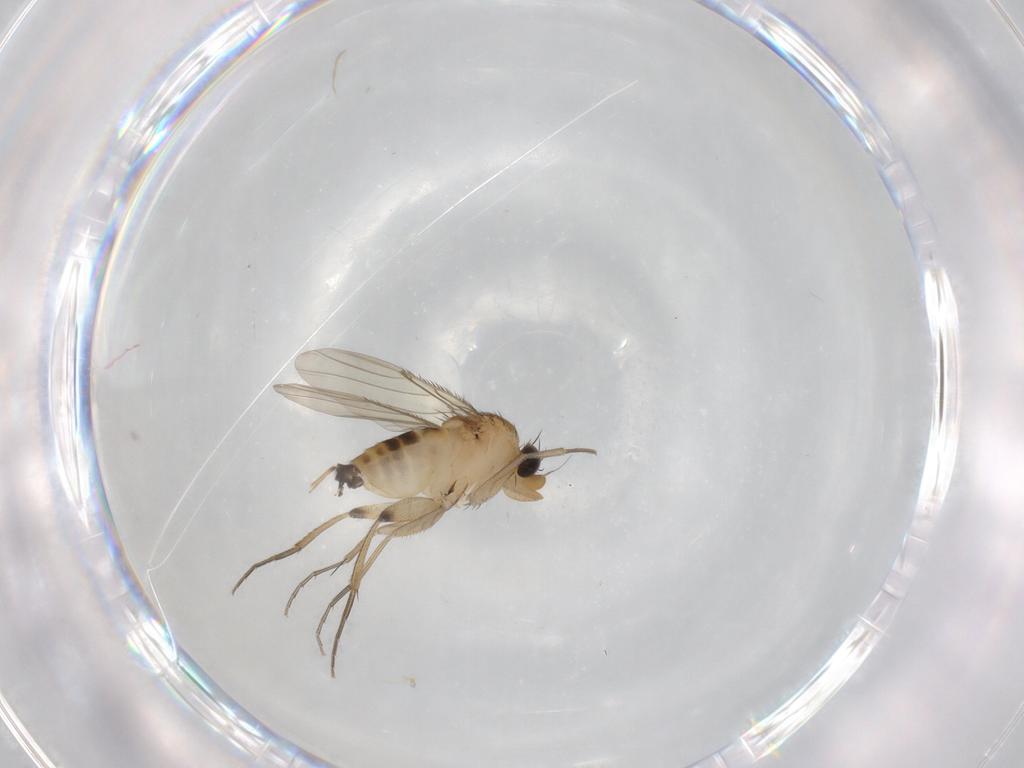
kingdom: Animalia
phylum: Arthropoda
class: Insecta
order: Diptera
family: Phoridae
